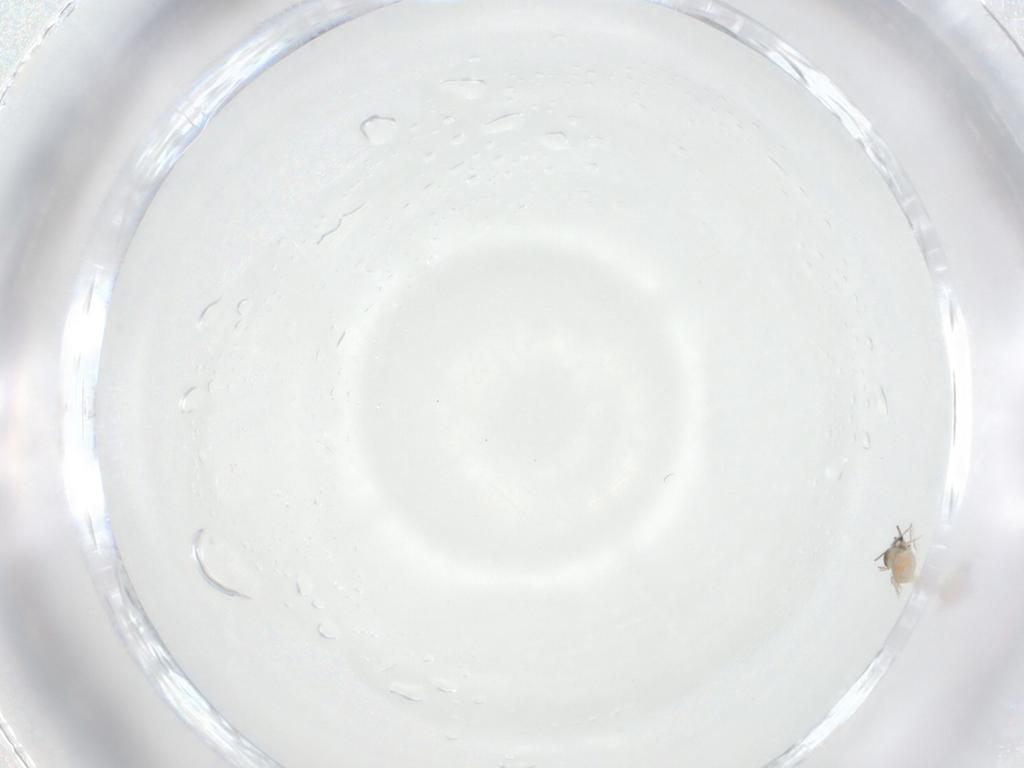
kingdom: Animalia
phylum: Arthropoda
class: Insecta
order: Diptera
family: Cecidomyiidae
